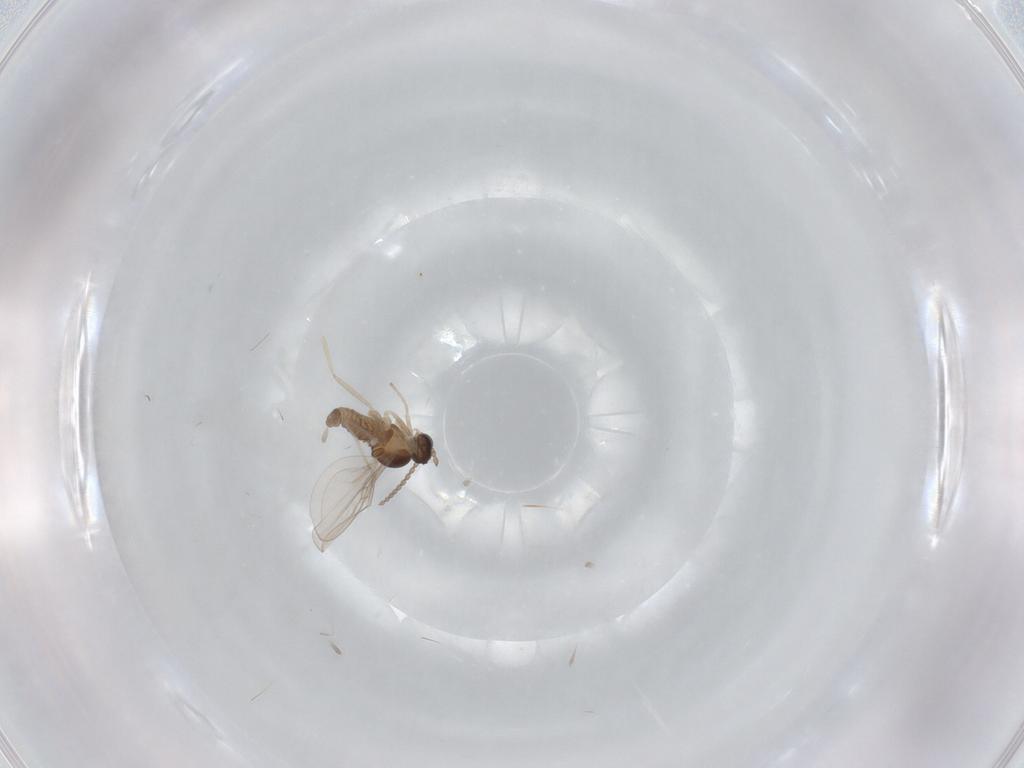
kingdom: Animalia
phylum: Arthropoda
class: Insecta
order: Diptera
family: Cecidomyiidae
